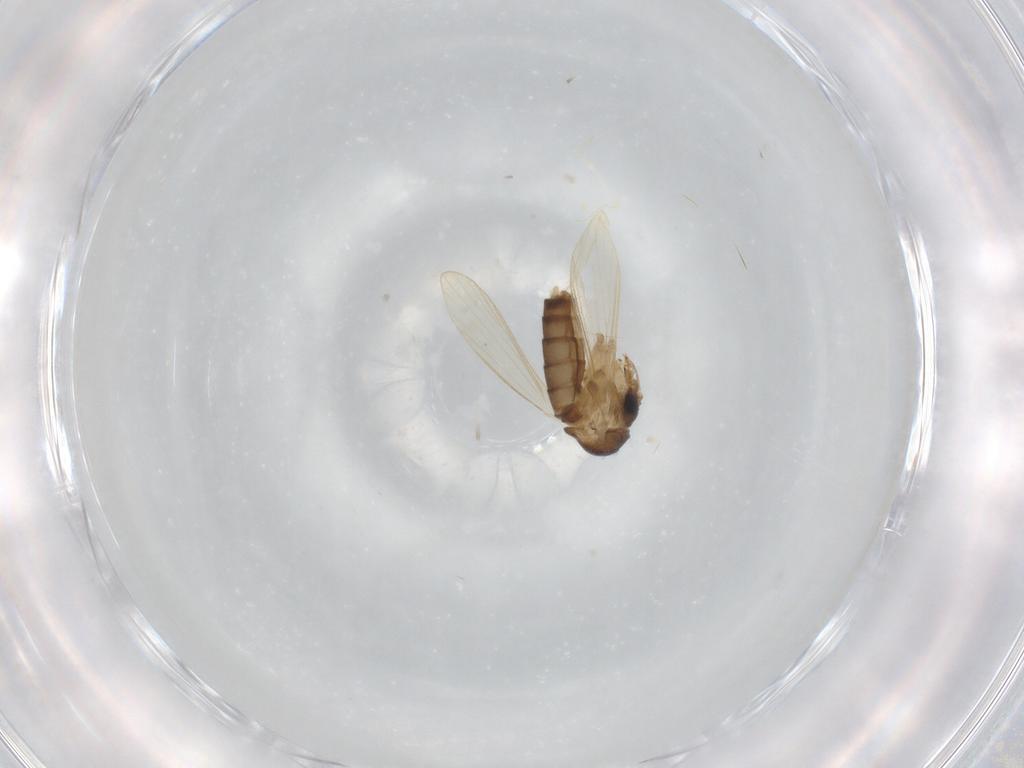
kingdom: Animalia
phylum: Arthropoda
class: Insecta
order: Diptera
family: Psychodidae
